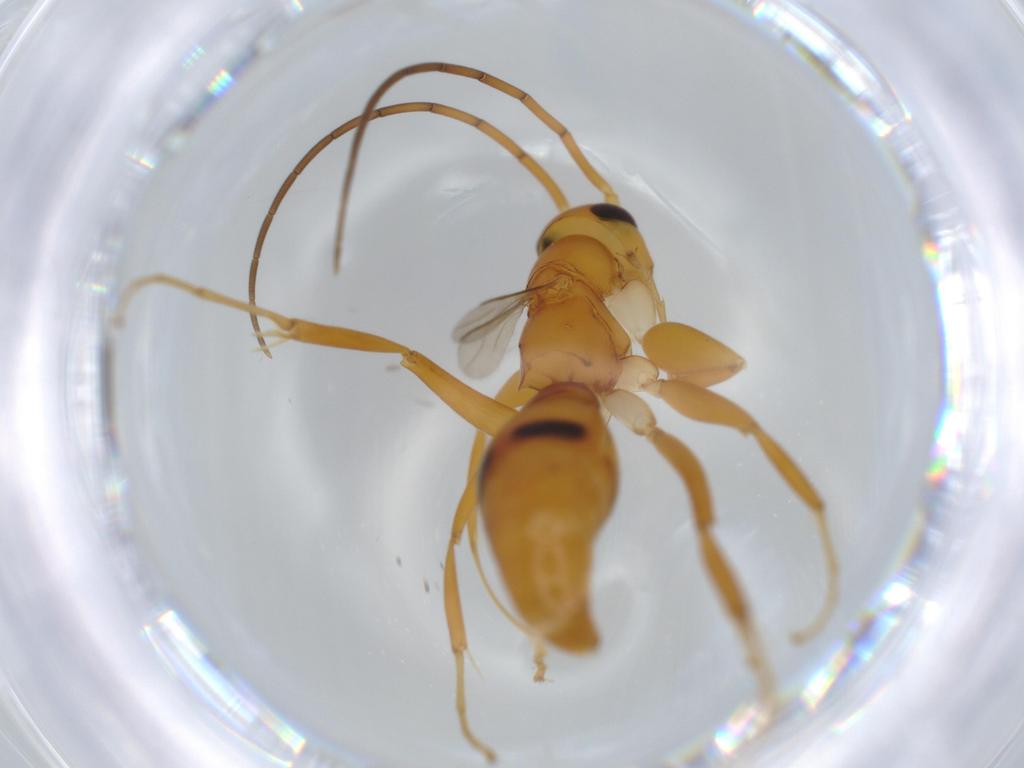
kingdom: Animalia
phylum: Arthropoda
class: Insecta
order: Hymenoptera
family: Rhopalosomatidae
